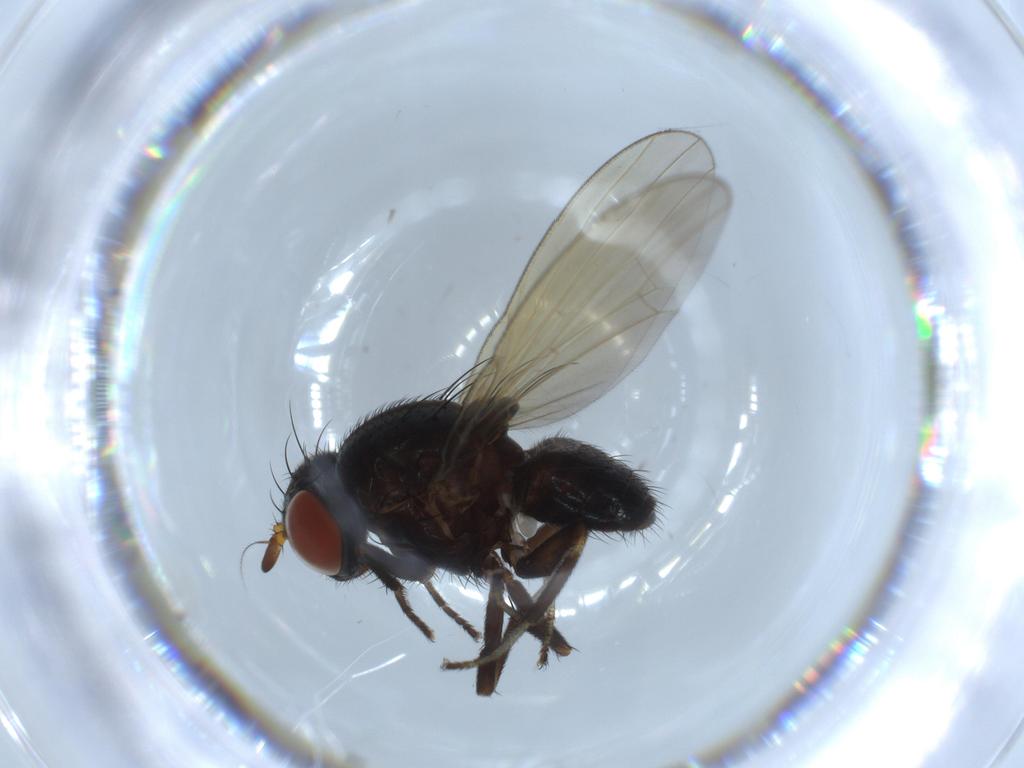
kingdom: Animalia
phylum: Arthropoda
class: Insecta
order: Diptera
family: Lauxaniidae
